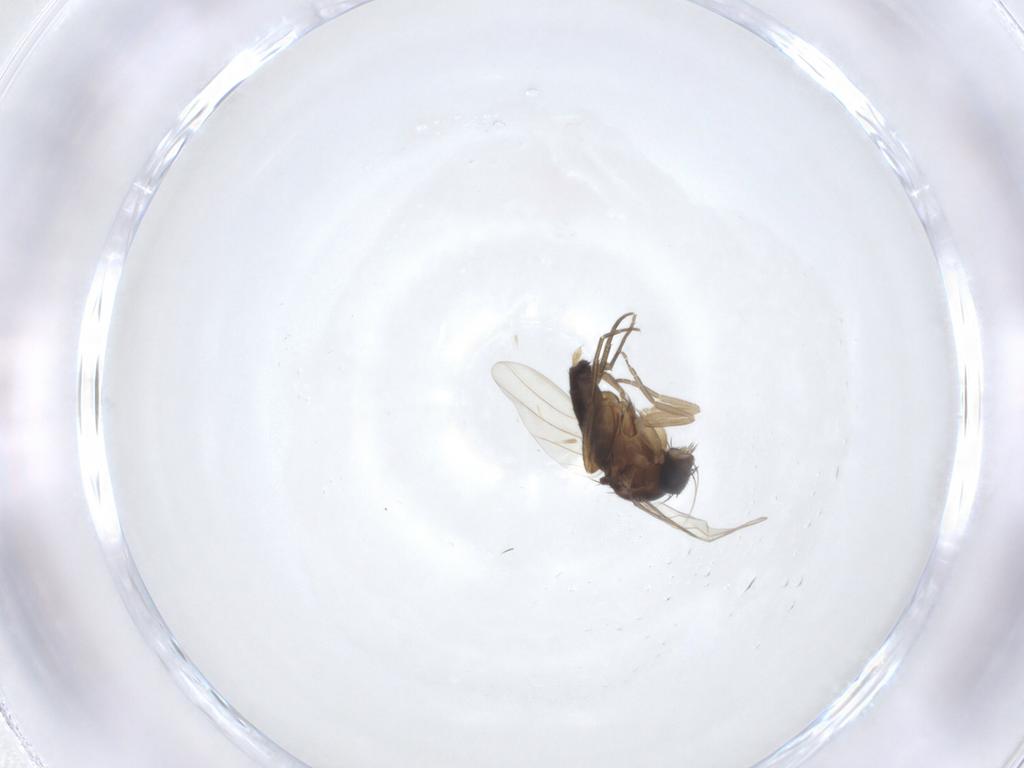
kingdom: Animalia
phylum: Arthropoda
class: Insecta
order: Diptera
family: Phoridae
